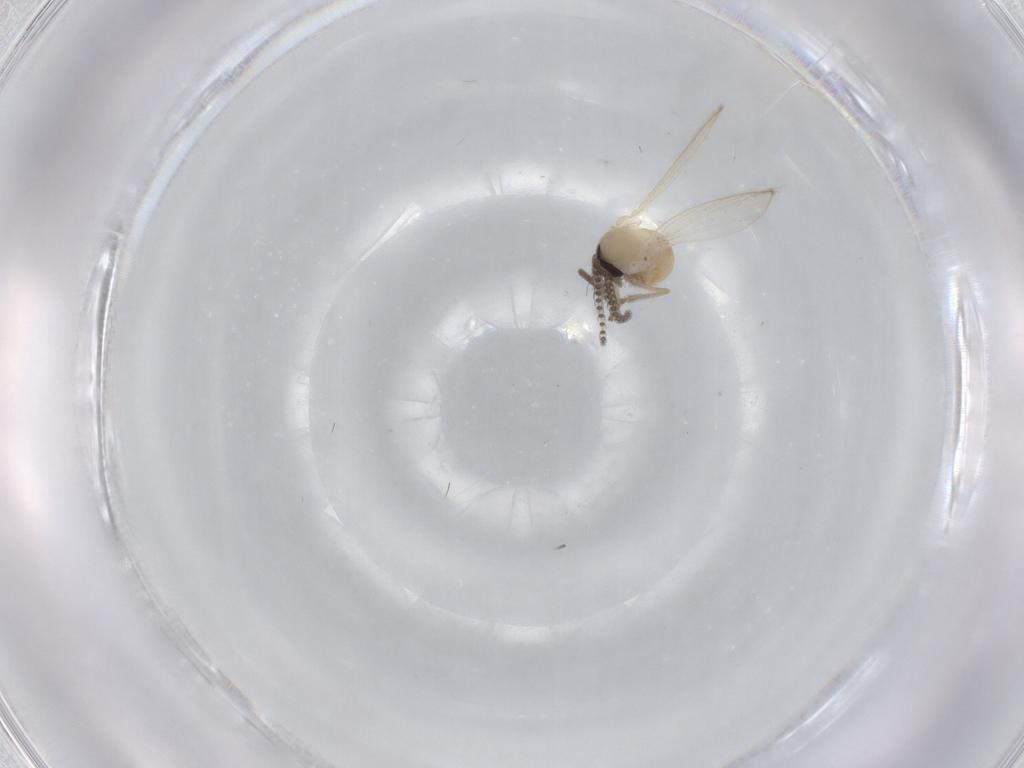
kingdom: Animalia
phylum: Arthropoda
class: Insecta
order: Diptera
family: Psychodidae
